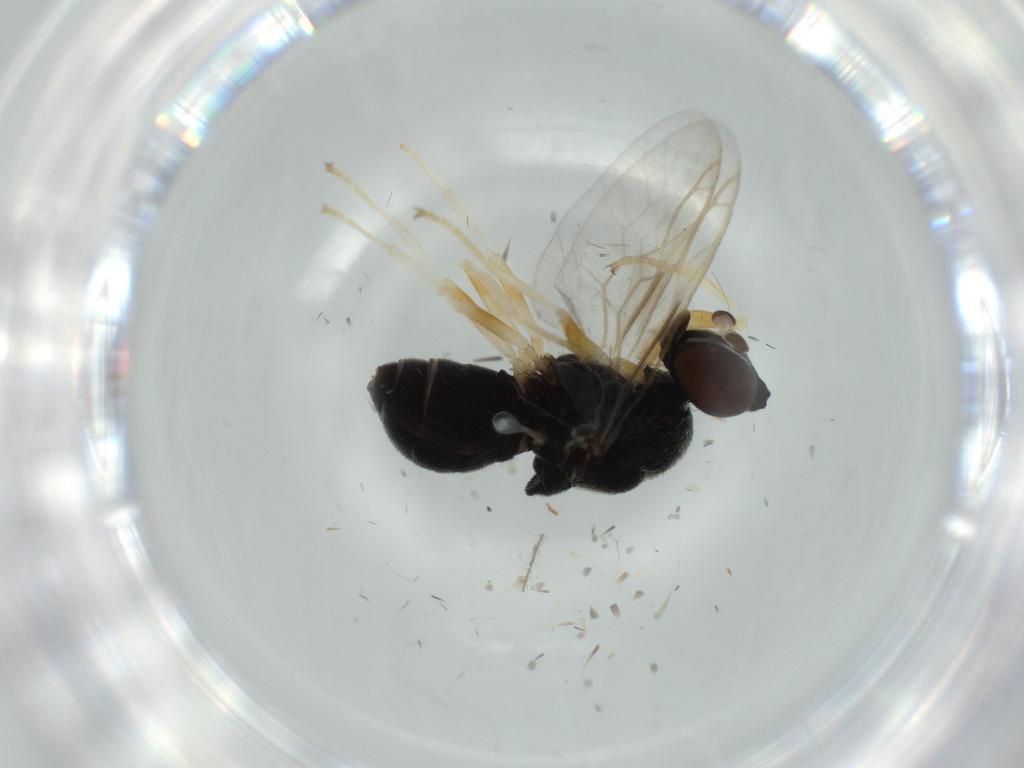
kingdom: Animalia
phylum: Arthropoda
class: Insecta
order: Diptera
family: Stratiomyidae
